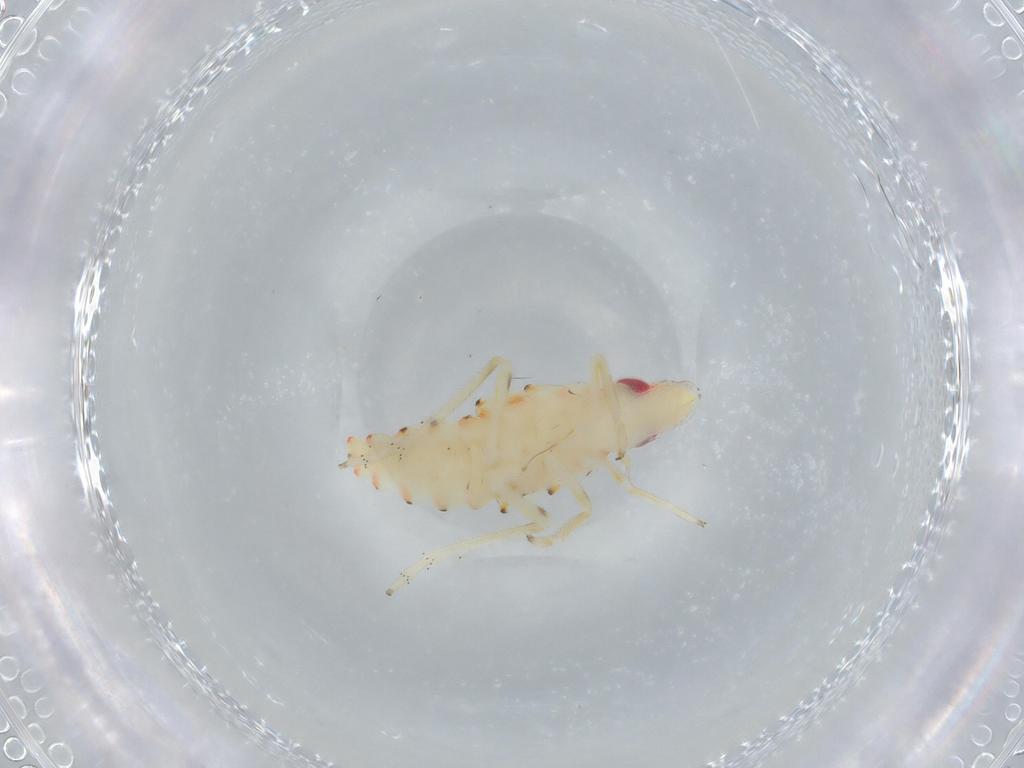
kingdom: Animalia
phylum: Arthropoda
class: Insecta
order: Hemiptera
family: Tropiduchidae
